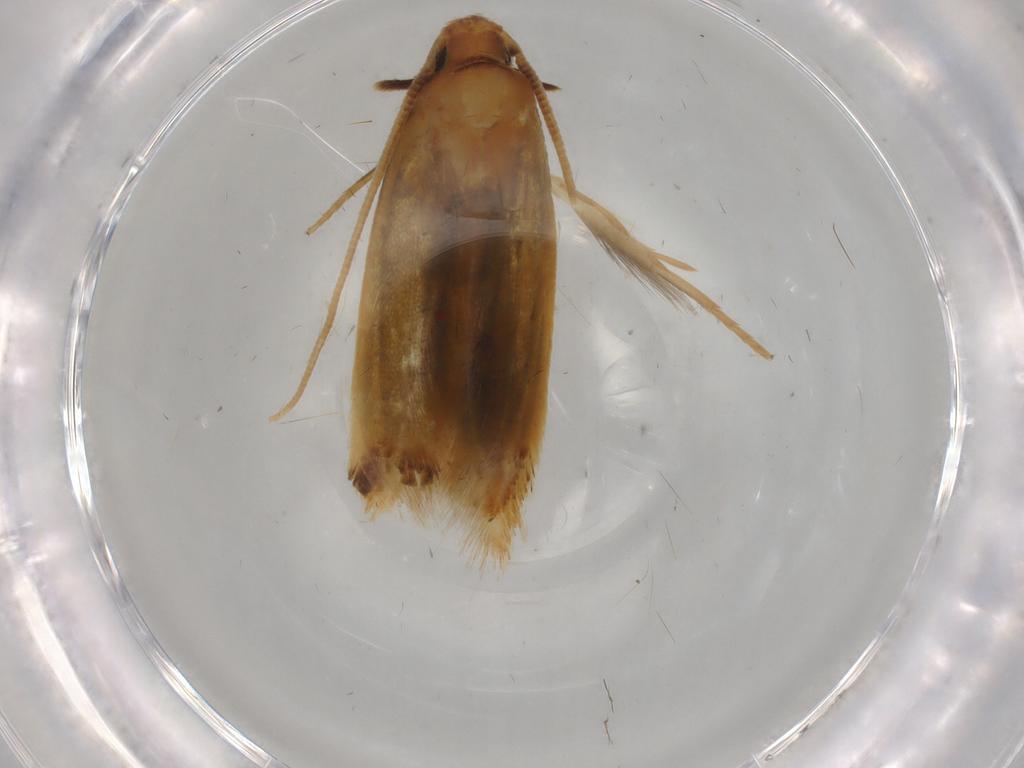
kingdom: Animalia
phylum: Arthropoda
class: Insecta
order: Lepidoptera
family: Tineidae
